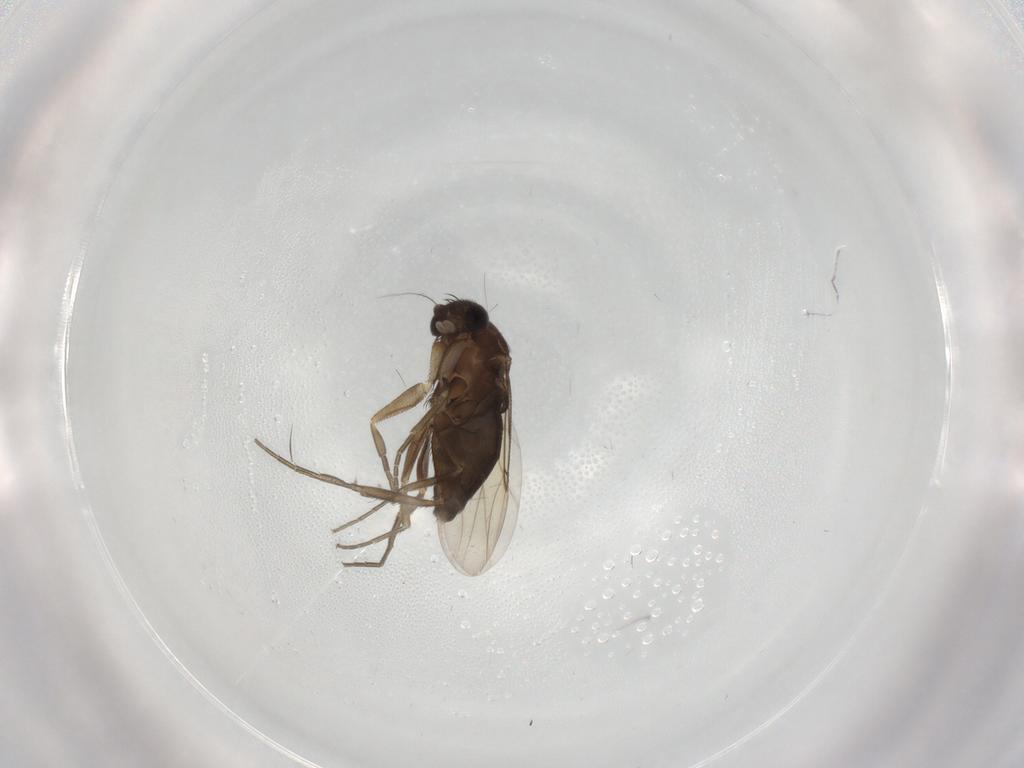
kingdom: Animalia
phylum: Arthropoda
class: Insecta
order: Diptera
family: Phoridae
